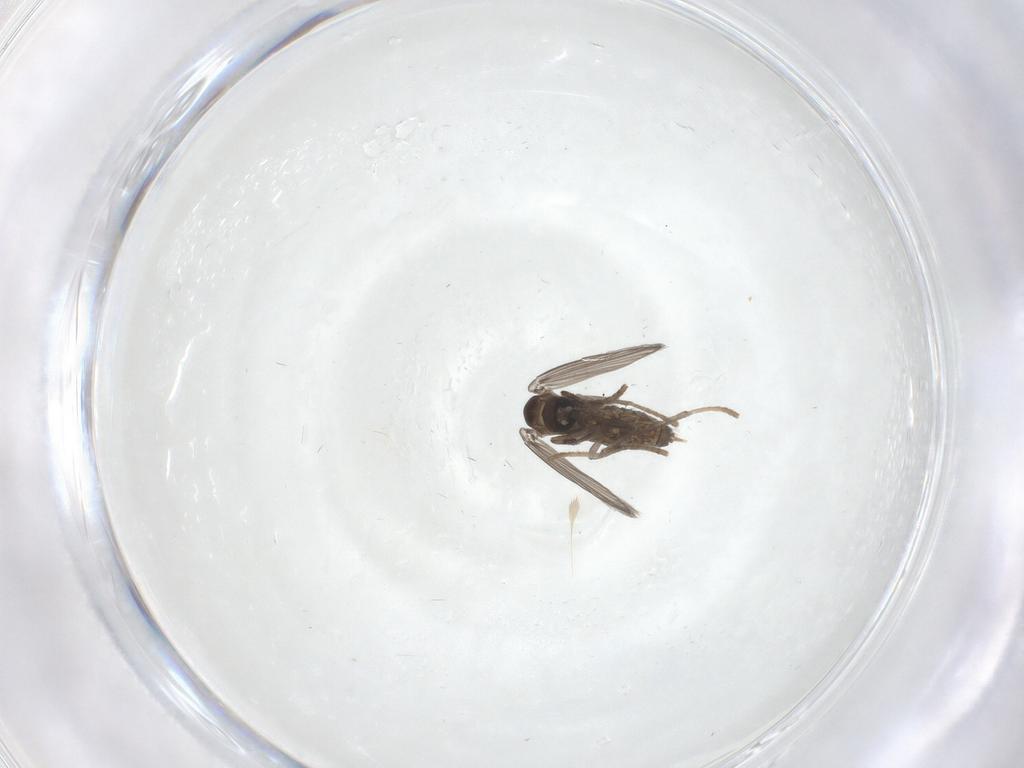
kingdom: Animalia
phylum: Arthropoda
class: Insecta
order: Diptera
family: Psychodidae
